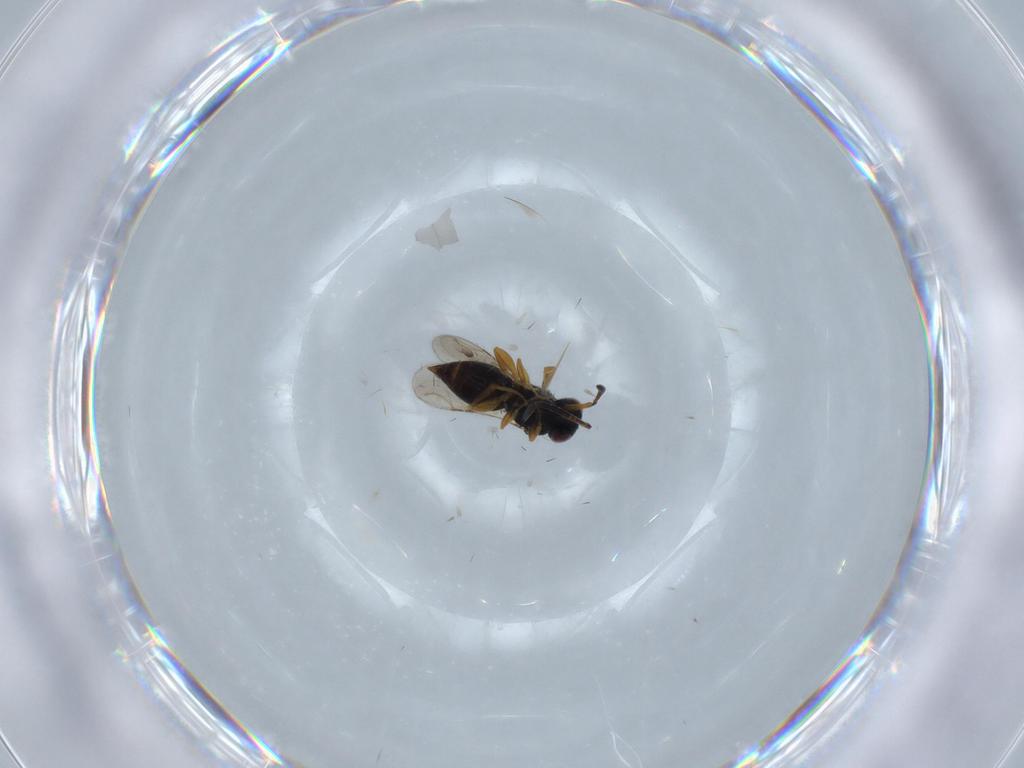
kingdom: Animalia
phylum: Arthropoda
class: Insecta
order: Hymenoptera
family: Ceraphronidae
